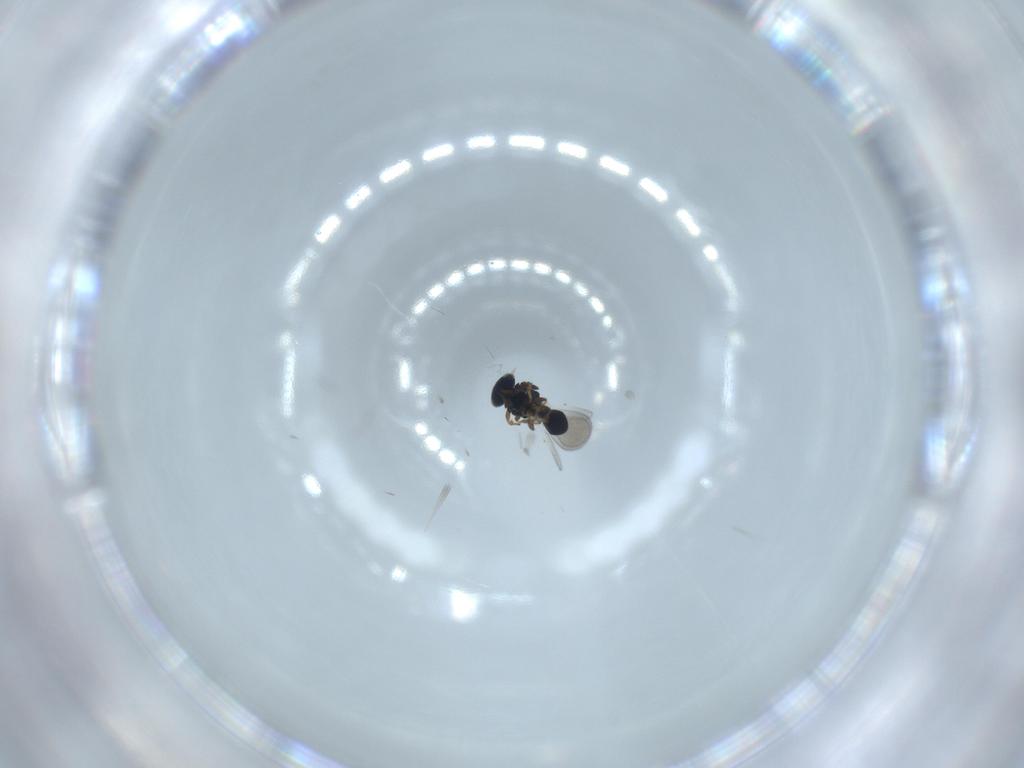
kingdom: Animalia
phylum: Arthropoda
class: Insecta
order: Hymenoptera
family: Platygastridae
